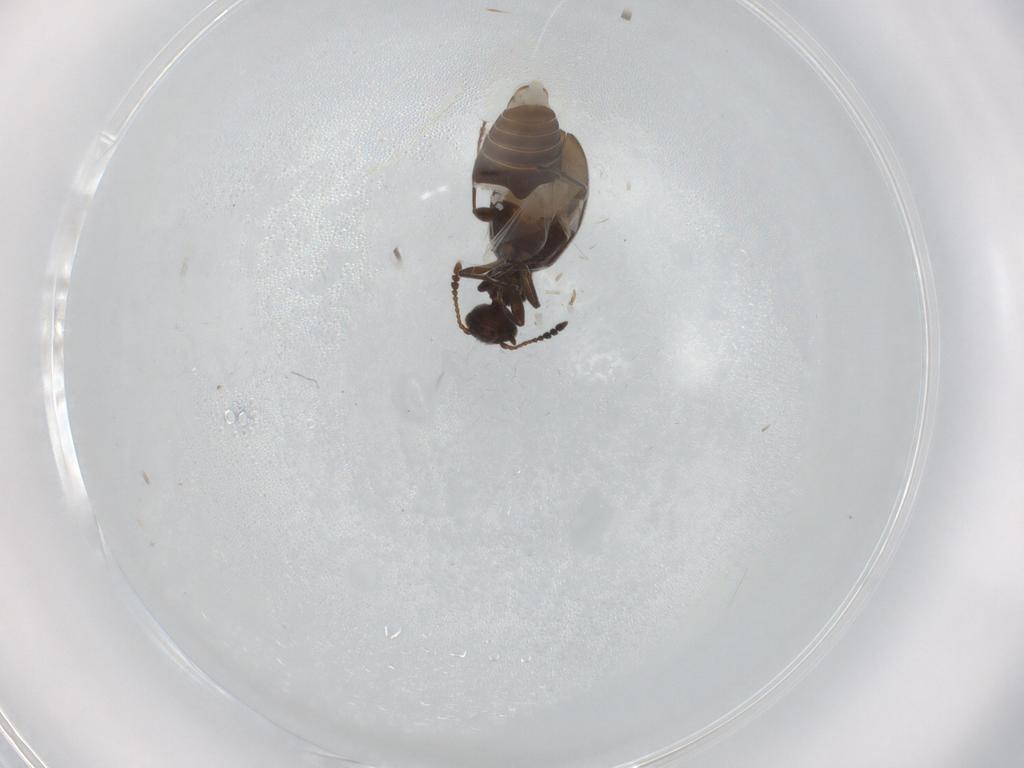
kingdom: Animalia
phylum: Arthropoda
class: Insecta
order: Coleoptera
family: Anthicidae
